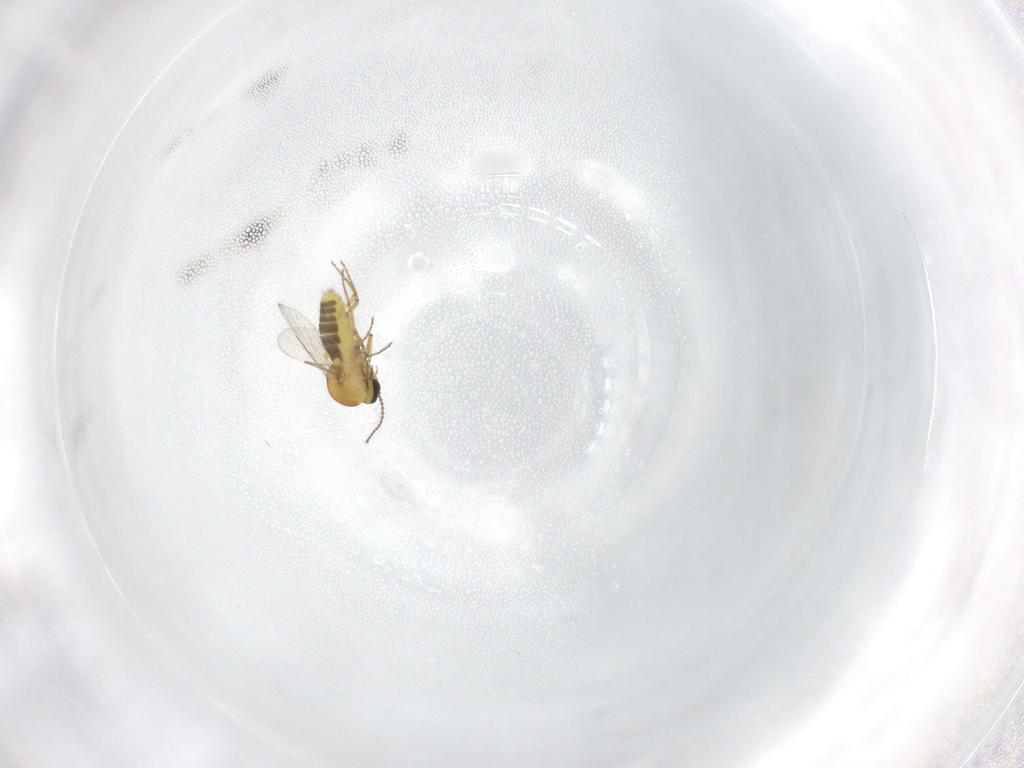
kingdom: Animalia
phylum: Arthropoda
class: Insecta
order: Diptera
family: Ceratopogonidae
